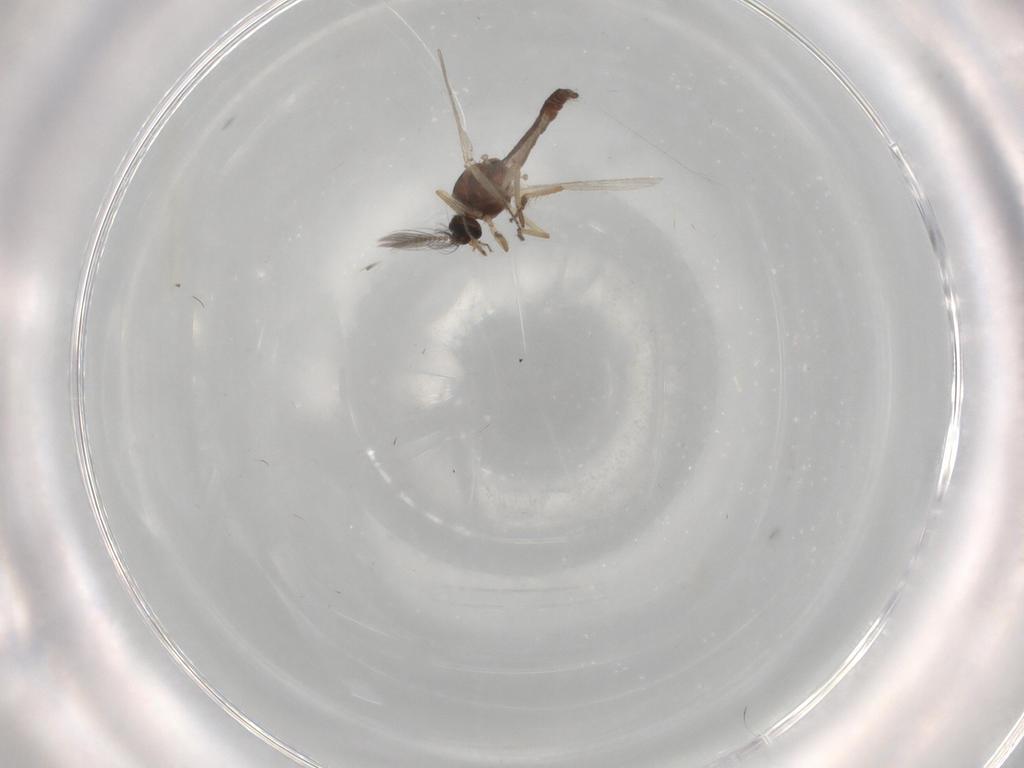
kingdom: Animalia
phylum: Arthropoda
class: Insecta
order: Diptera
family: Ceratopogonidae
